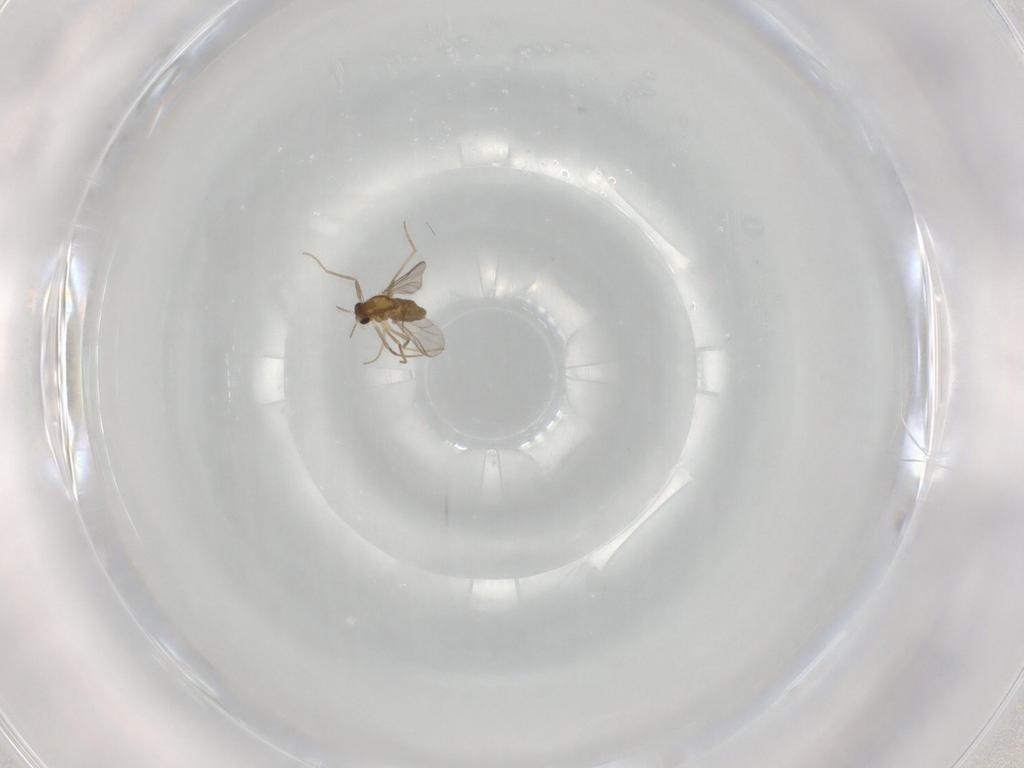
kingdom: Animalia
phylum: Arthropoda
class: Insecta
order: Diptera
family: Chironomidae
